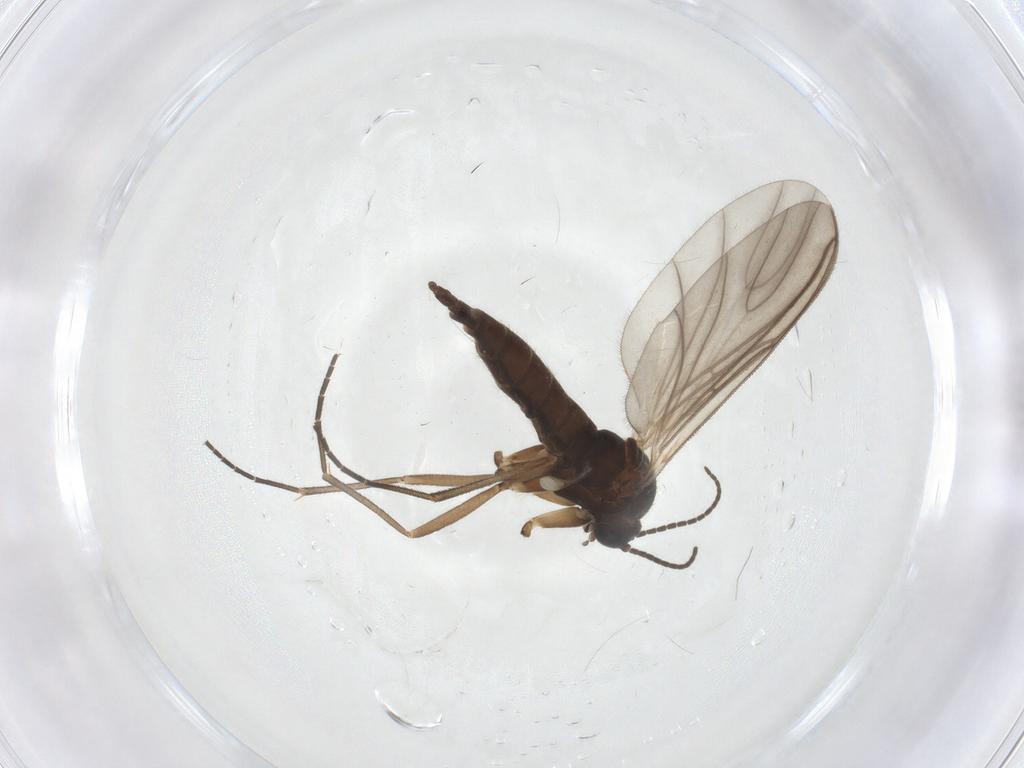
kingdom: Animalia
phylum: Arthropoda
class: Insecta
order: Diptera
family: Sciaridae
